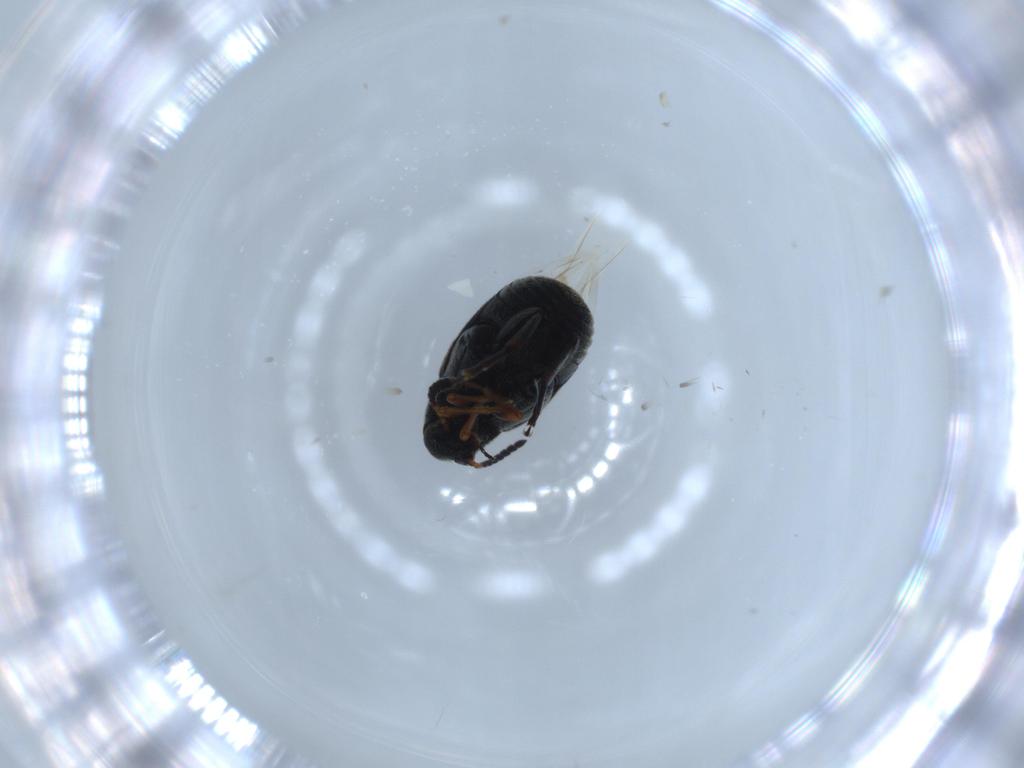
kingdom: Animalia
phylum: Arthropoda
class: Insecta
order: Coleoptera
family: Chrysomelidae
